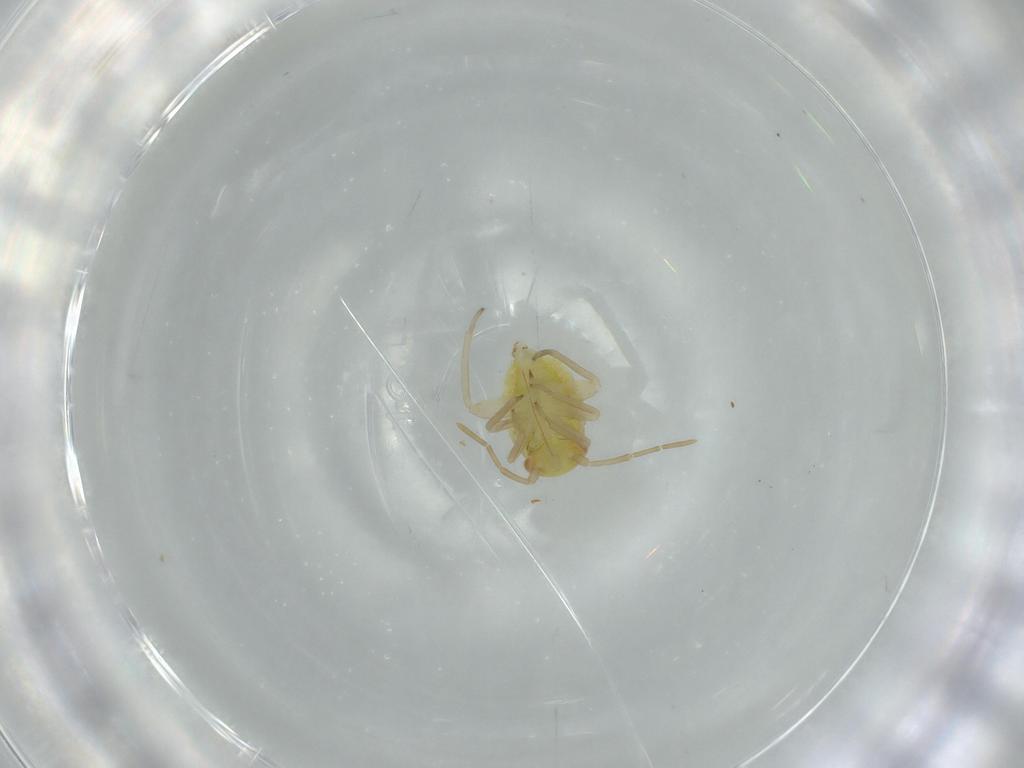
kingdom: Animalia
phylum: Arthropoda
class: Insecta
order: Hemiptera
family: Miridae
